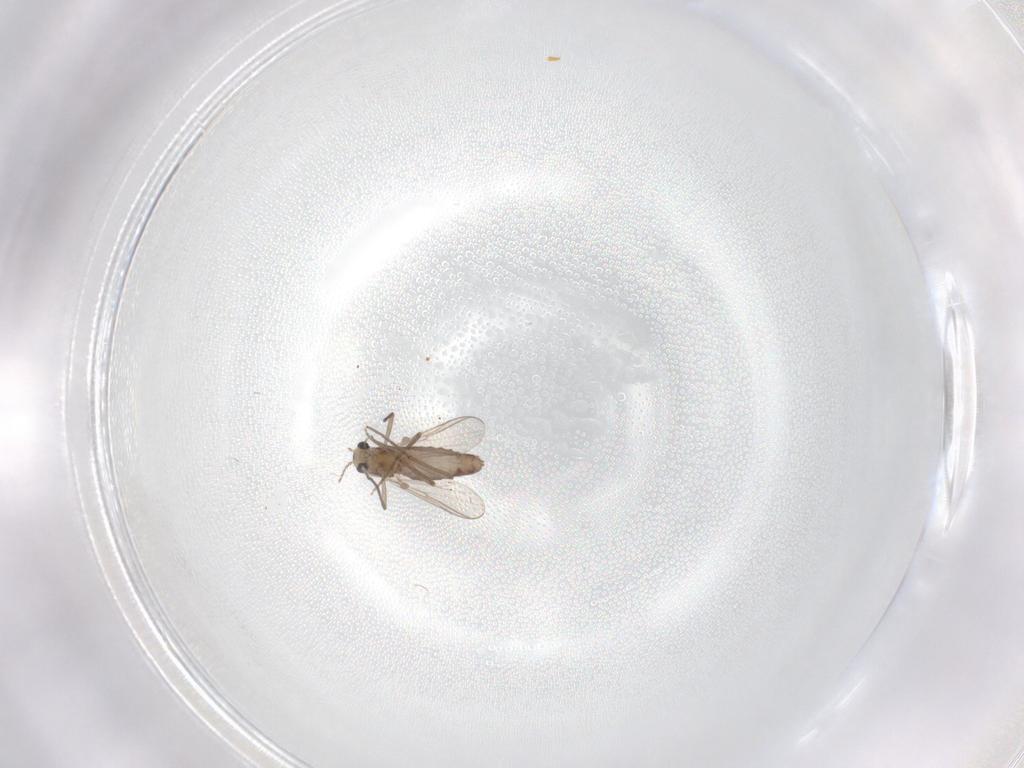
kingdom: Animalia
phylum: Arthropoda
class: Insecta
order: Diptera
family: Chironomidae
